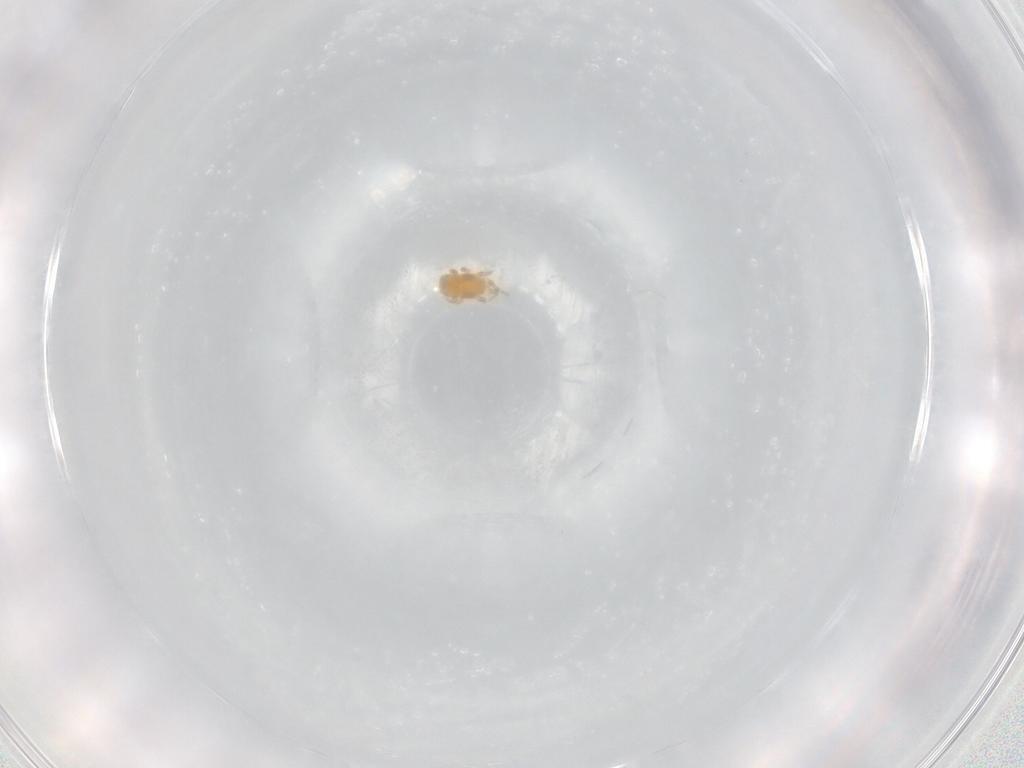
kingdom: Animalia
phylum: Arthropoda
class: Arachnida
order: Mesostigmata
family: Digamasellidae
